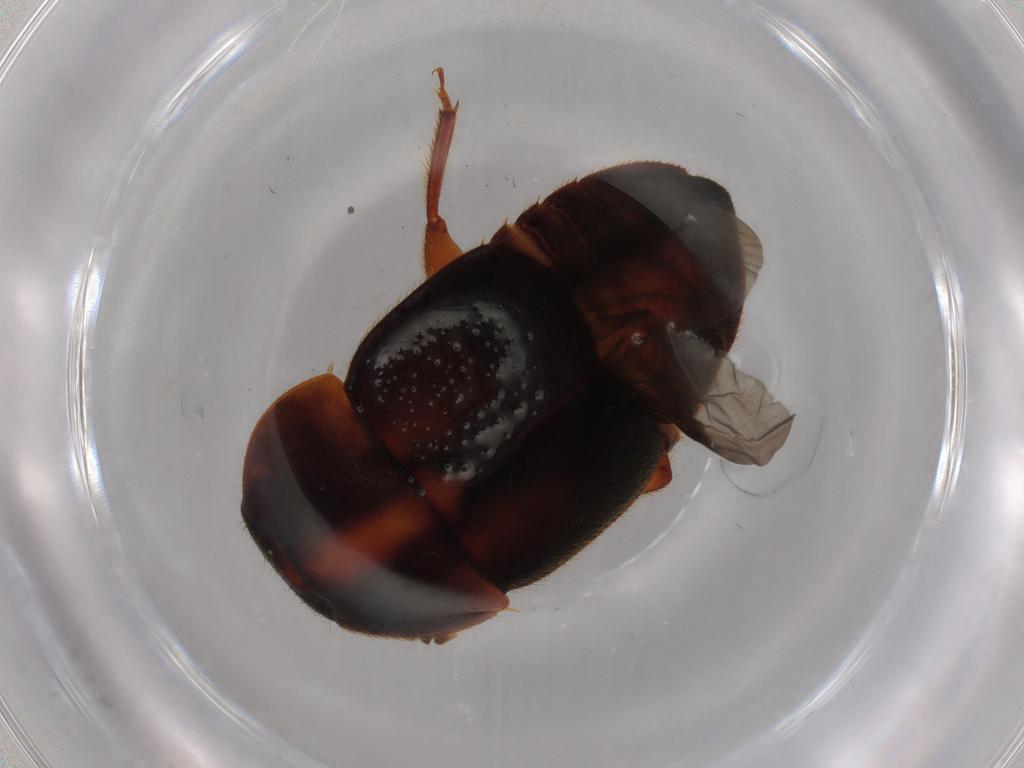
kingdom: Animalia
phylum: Arthropoda
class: Insecta
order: Coleoptera
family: Nitidulidae
